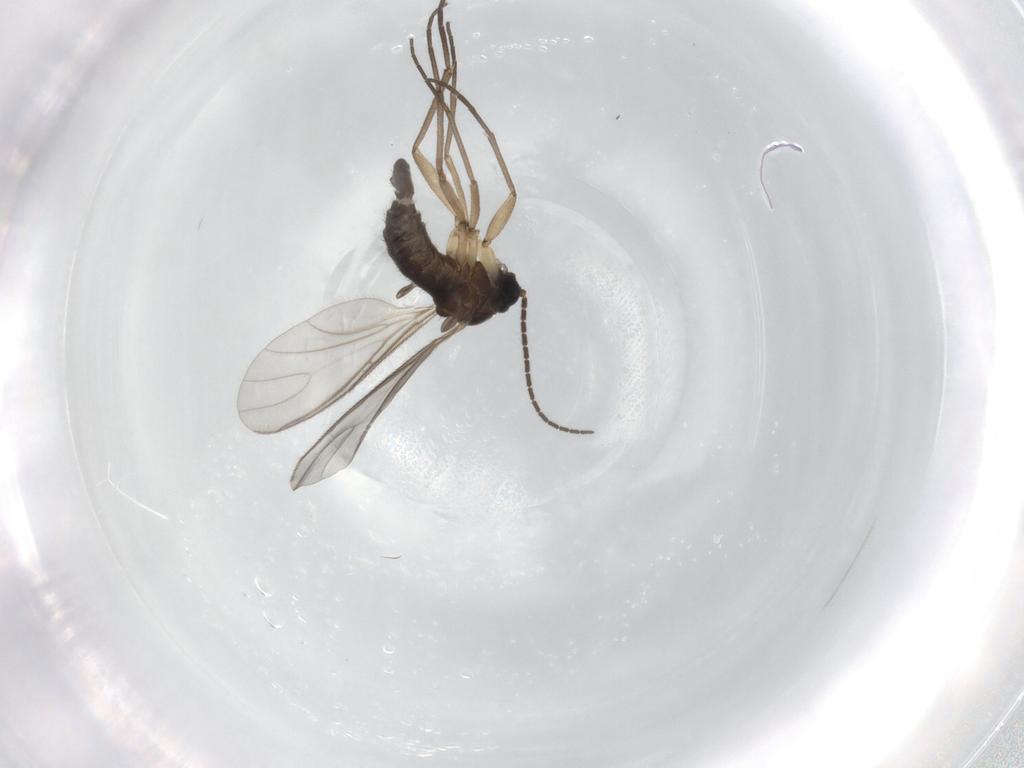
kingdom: Animalia
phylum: Arthropoda
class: Insecta
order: Diptera
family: Sciaridae
